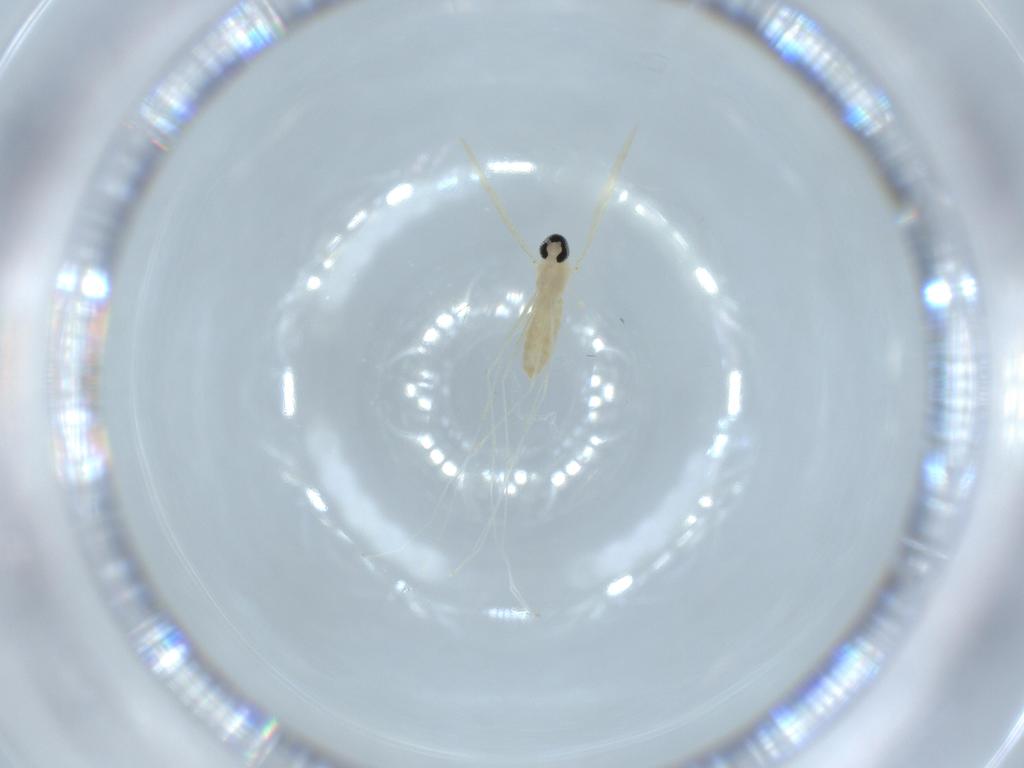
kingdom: Animalia
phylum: Arthropoda
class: Insecta
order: Diptera
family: Cecidomyiidae
